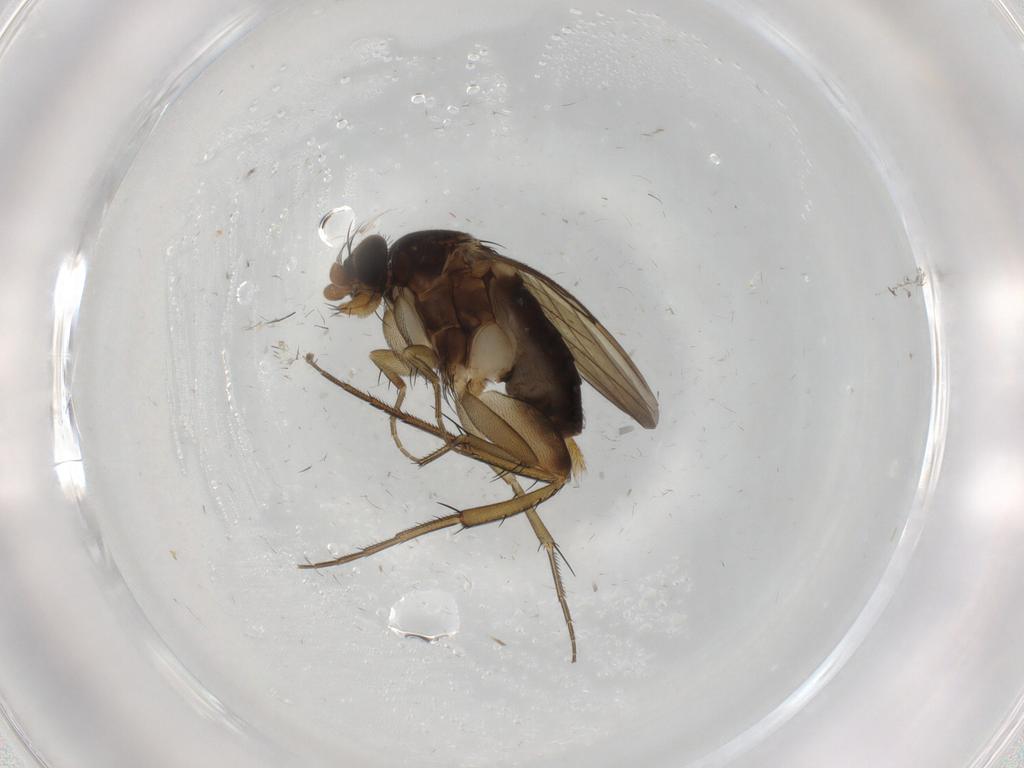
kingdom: Animalia
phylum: Arthropoda
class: Insecta
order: Diptera
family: Phoridae
